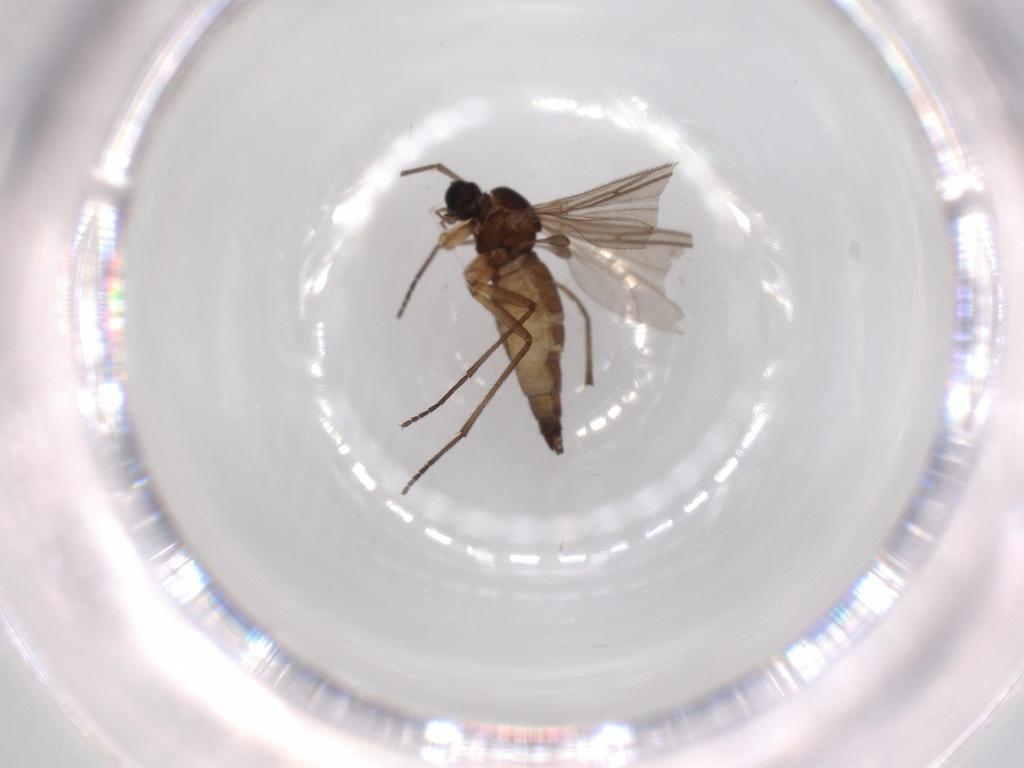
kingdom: Animalia
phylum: Arthropoda
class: Insecta
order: Diptera
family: Sciaridae
